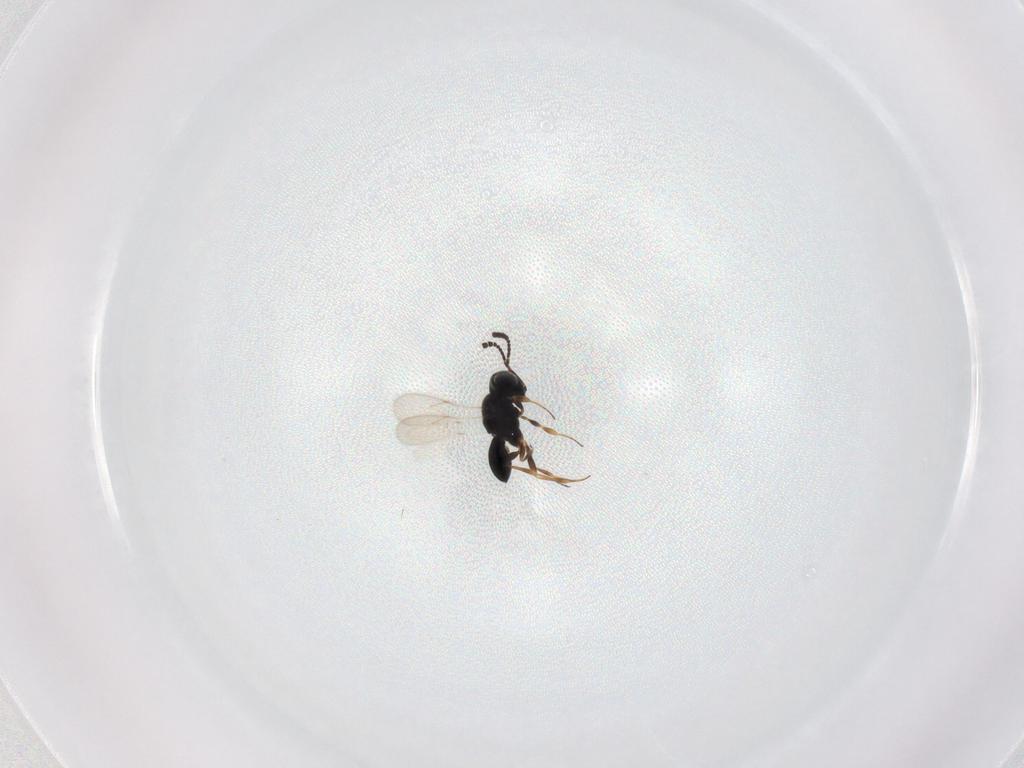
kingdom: Animalia
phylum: Arthropoda
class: Insecta
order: Hymenoptera
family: Scelionidae
